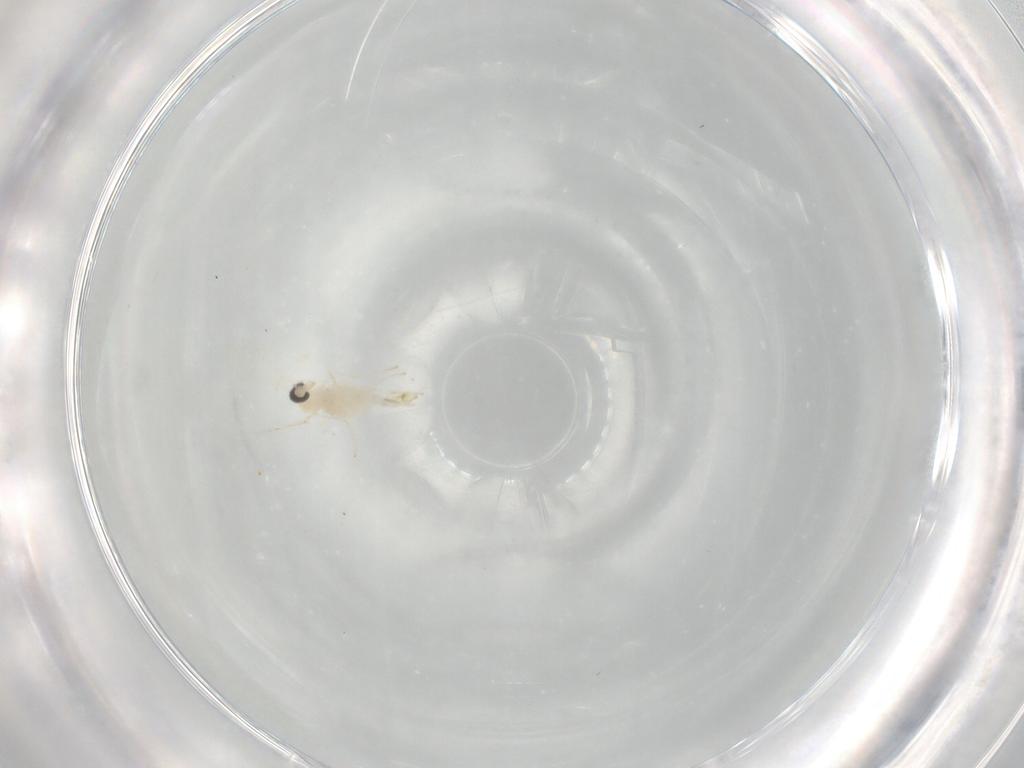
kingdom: Animalia
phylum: Arthropoda
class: Insecta
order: Diptera
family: Cecidomyiidae
